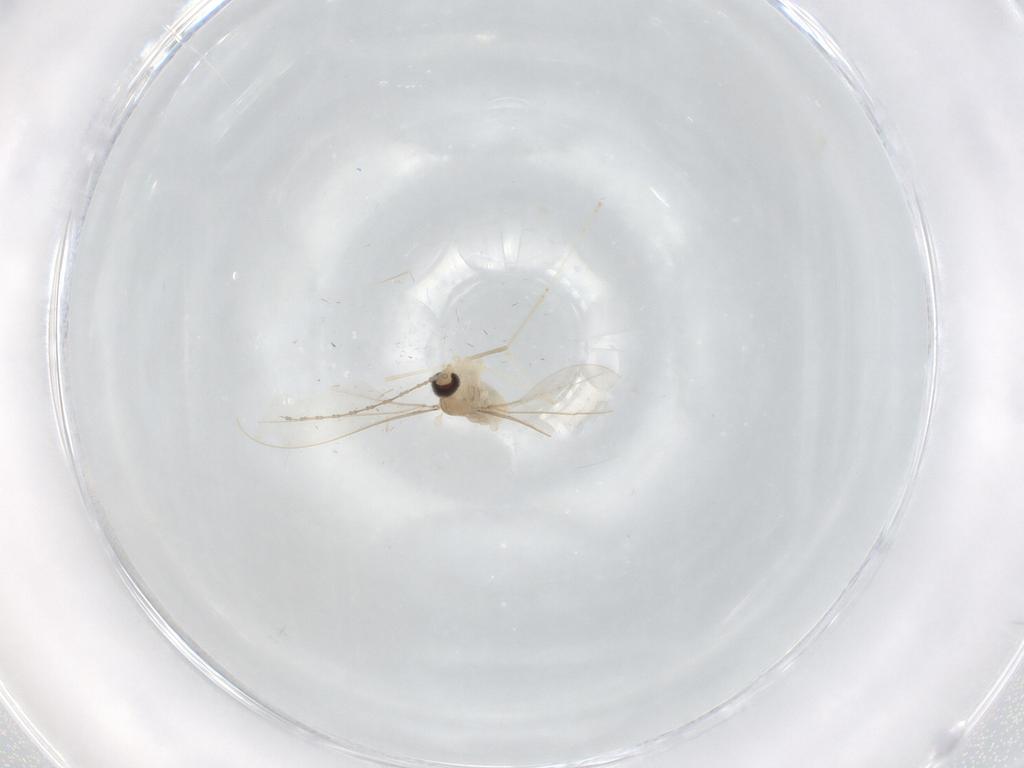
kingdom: Animalia
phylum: Arthropoda
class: Insecta
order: Diptera
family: Cecidomyiidae
